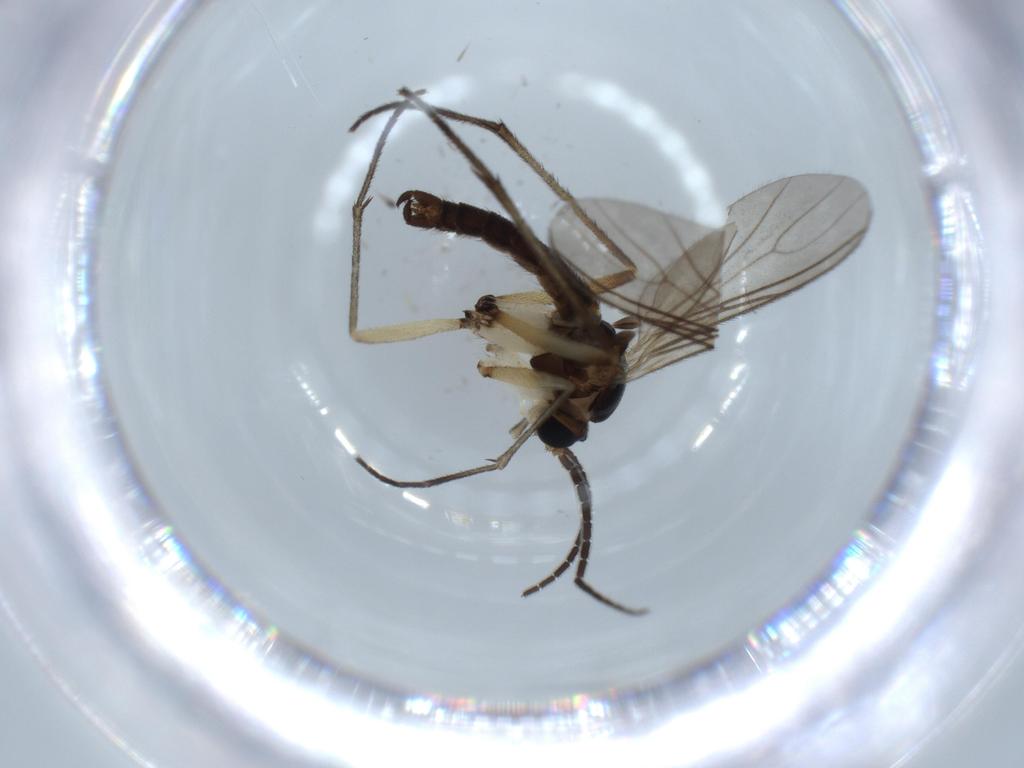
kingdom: Animalia
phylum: Arthropoda
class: Insecta
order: Diptera
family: Sciaridae
